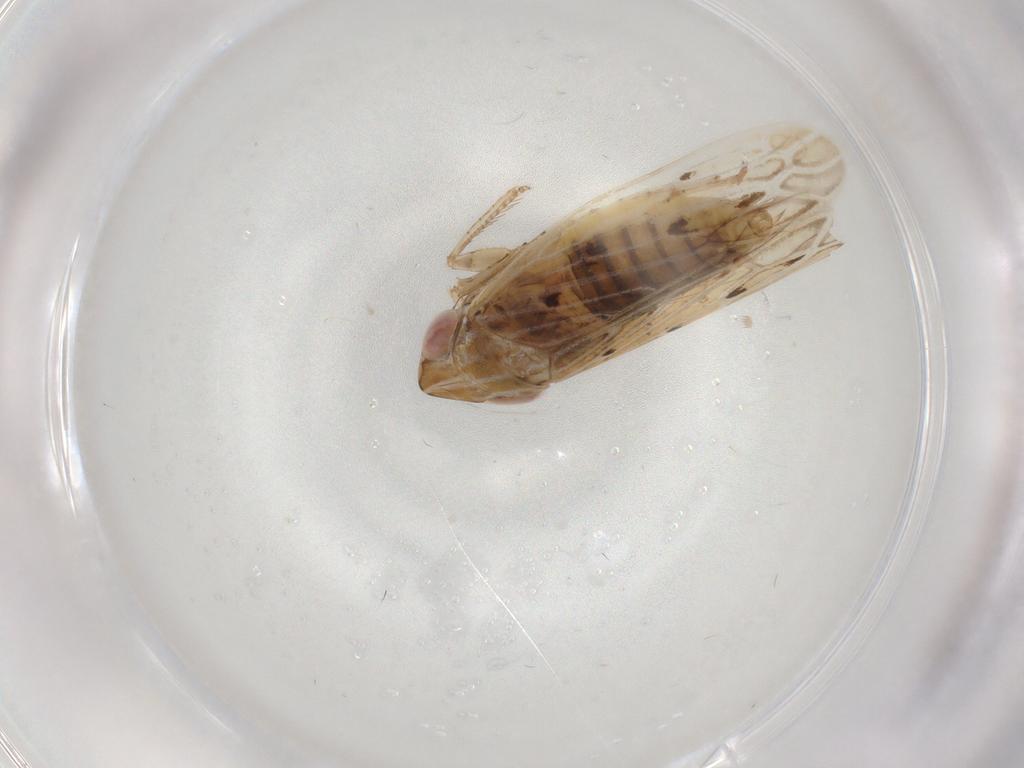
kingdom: Animalia
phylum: Arthropoda
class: Insecta
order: Hemiptera
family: Cicadellidae
